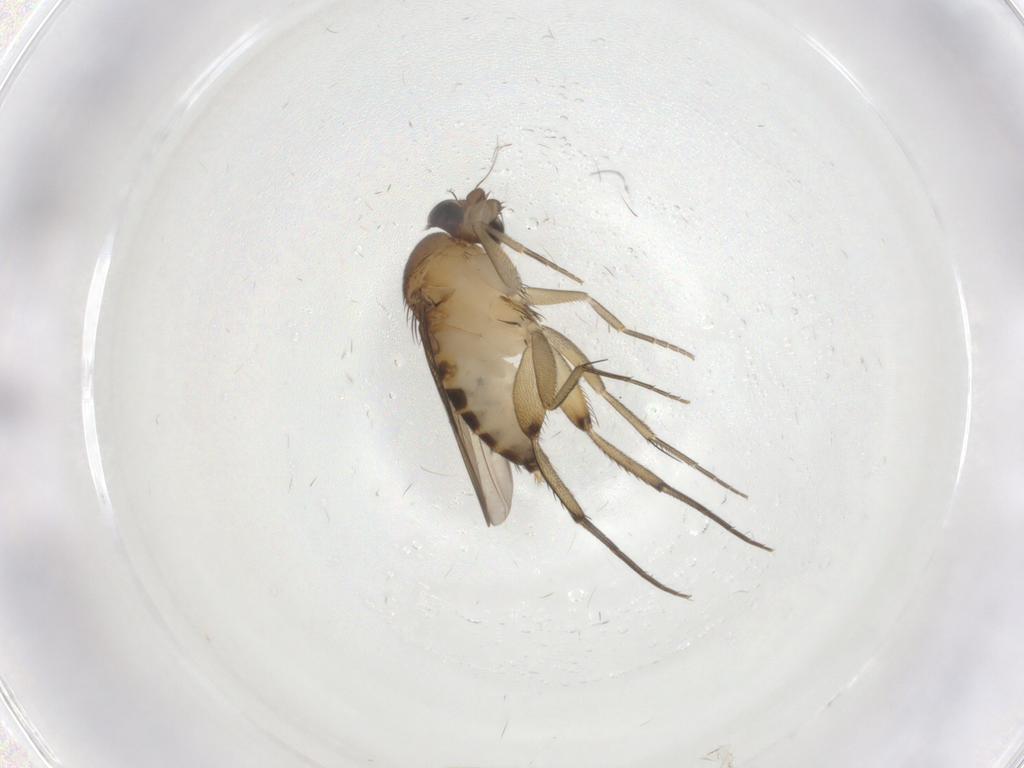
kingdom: Animalia
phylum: Arthropoda
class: Insecta
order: Diptera
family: Phoridae
